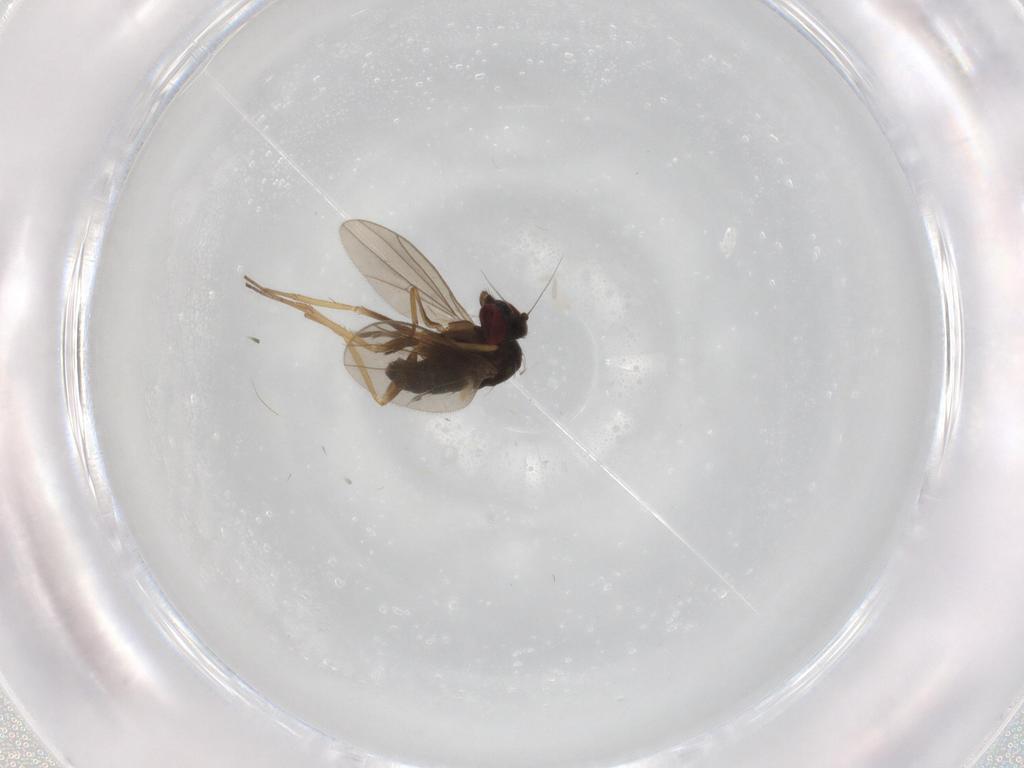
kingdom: Animalia
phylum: Arthropoda
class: Insecta
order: Diptera
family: Dolichopodidae
